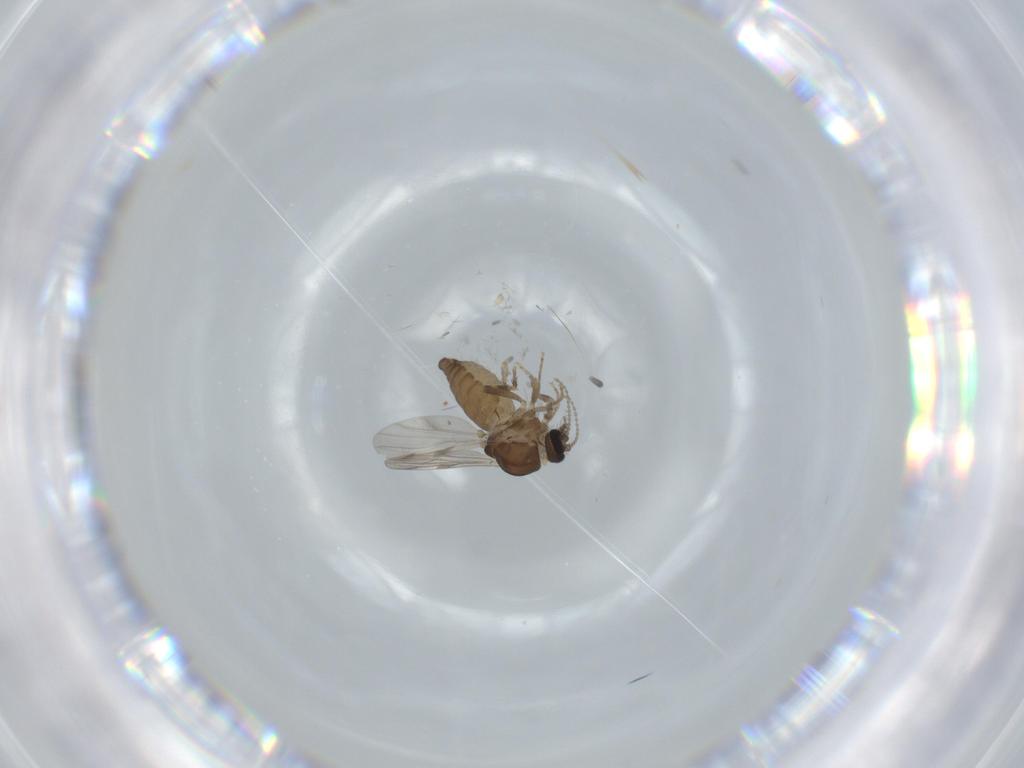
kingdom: Animalia
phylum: Arthropoda
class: Insecta
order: Diptera
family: Ceratopogonidae
